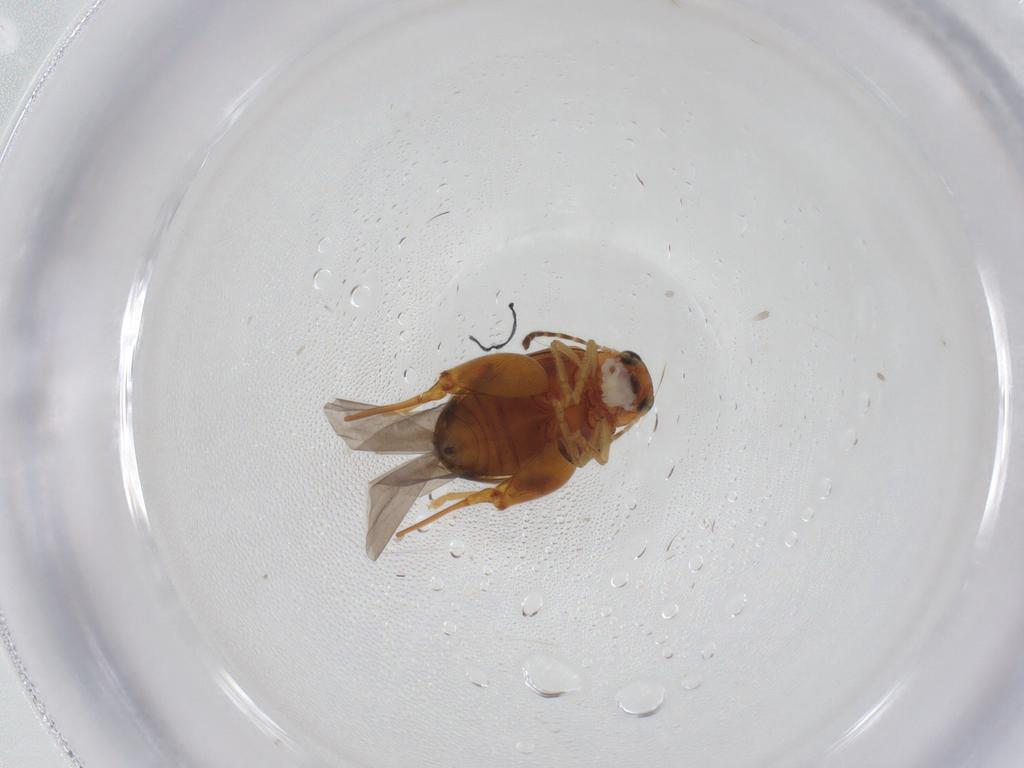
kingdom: Animalia
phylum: Arthropoda
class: Insecta
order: Coleoptera
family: Chrysomelidae
